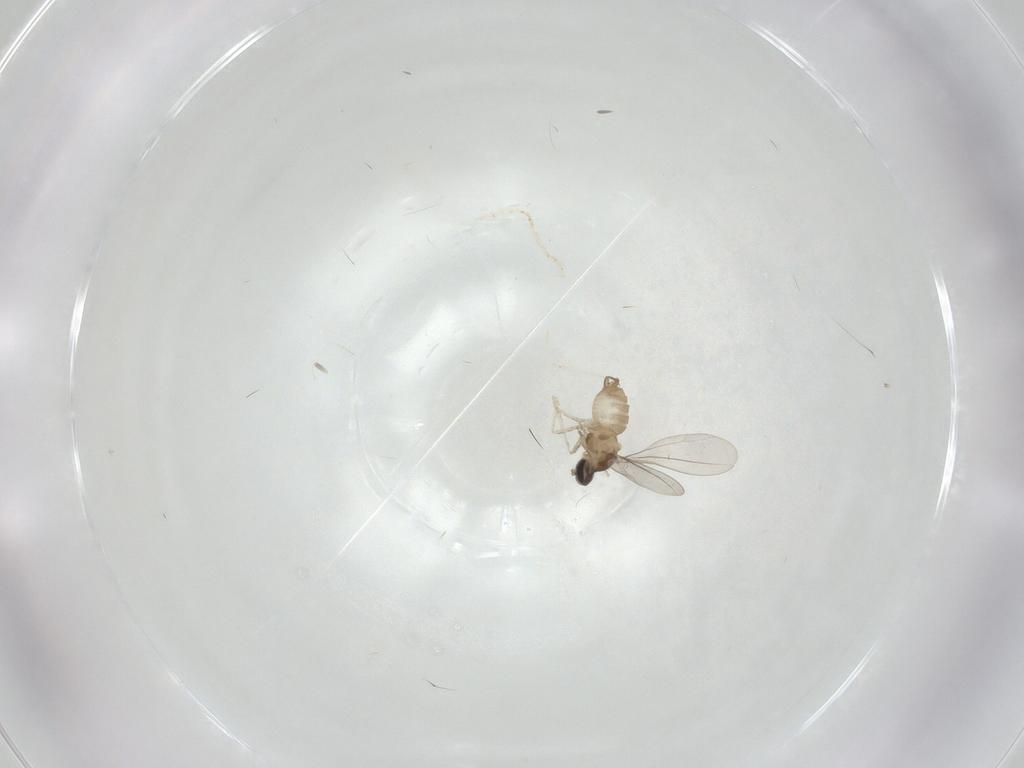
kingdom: Animalia
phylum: Arthropoda
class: Insecta
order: Diptera
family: Cecidomyiidae
